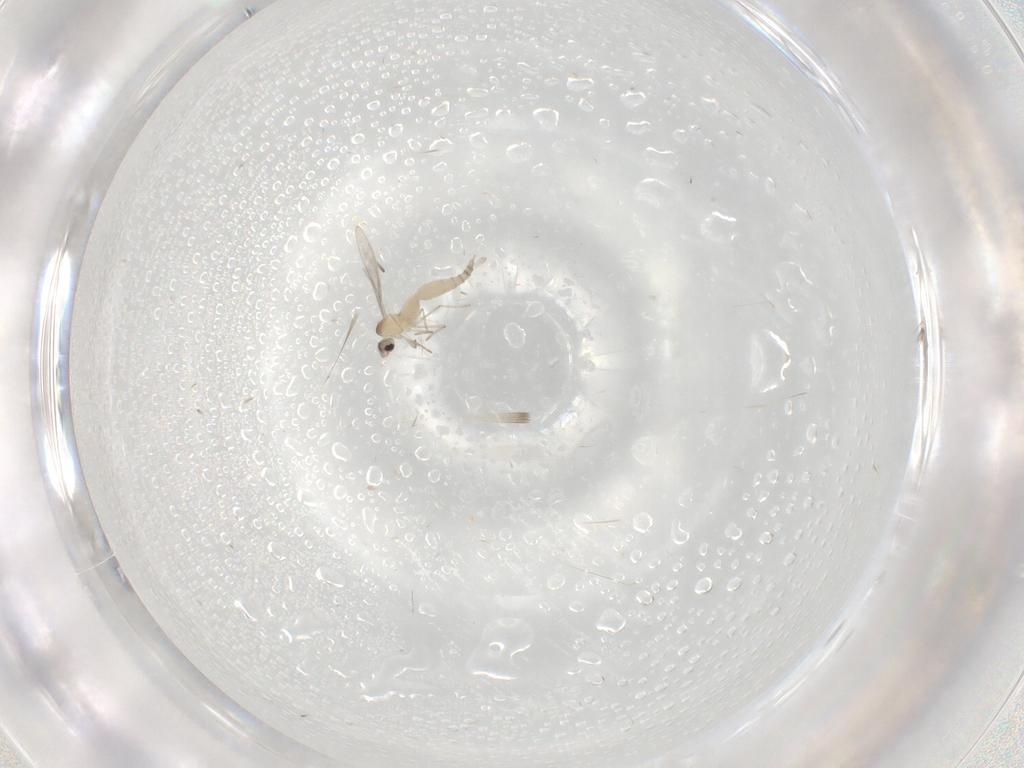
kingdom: Animalia
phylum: Arthropoda
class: Insecta
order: Diptera
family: Cecidomyiidae
